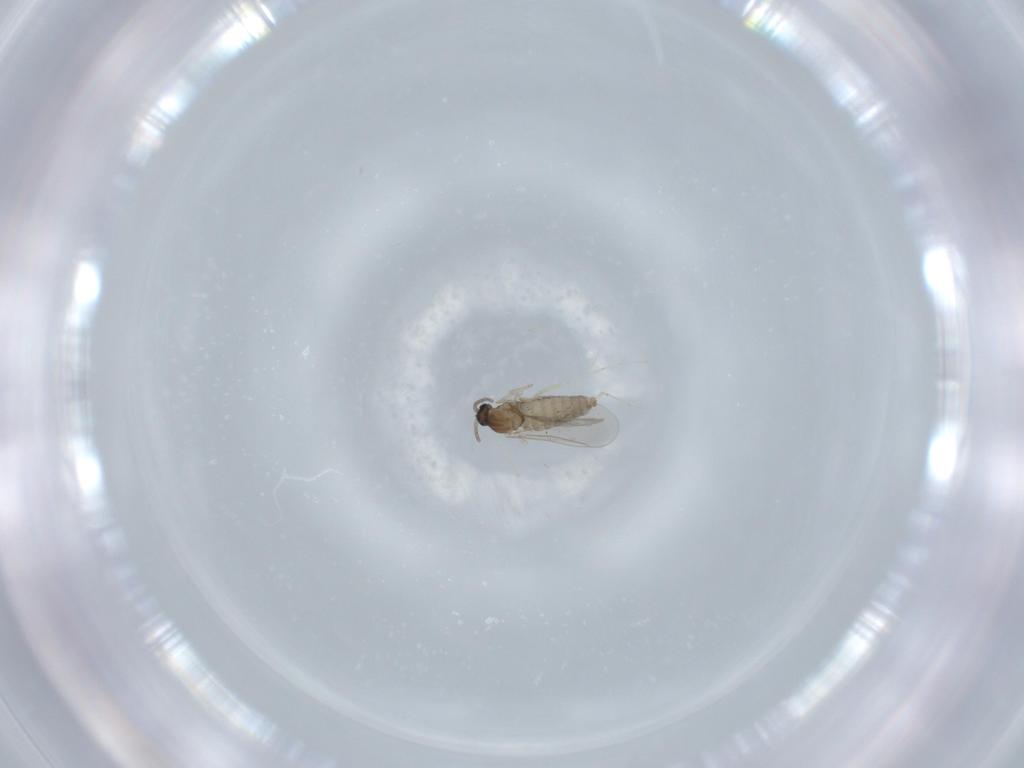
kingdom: Animalia
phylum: Arthropoda
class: Insecta
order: Diptera
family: Cecidomyiidae
